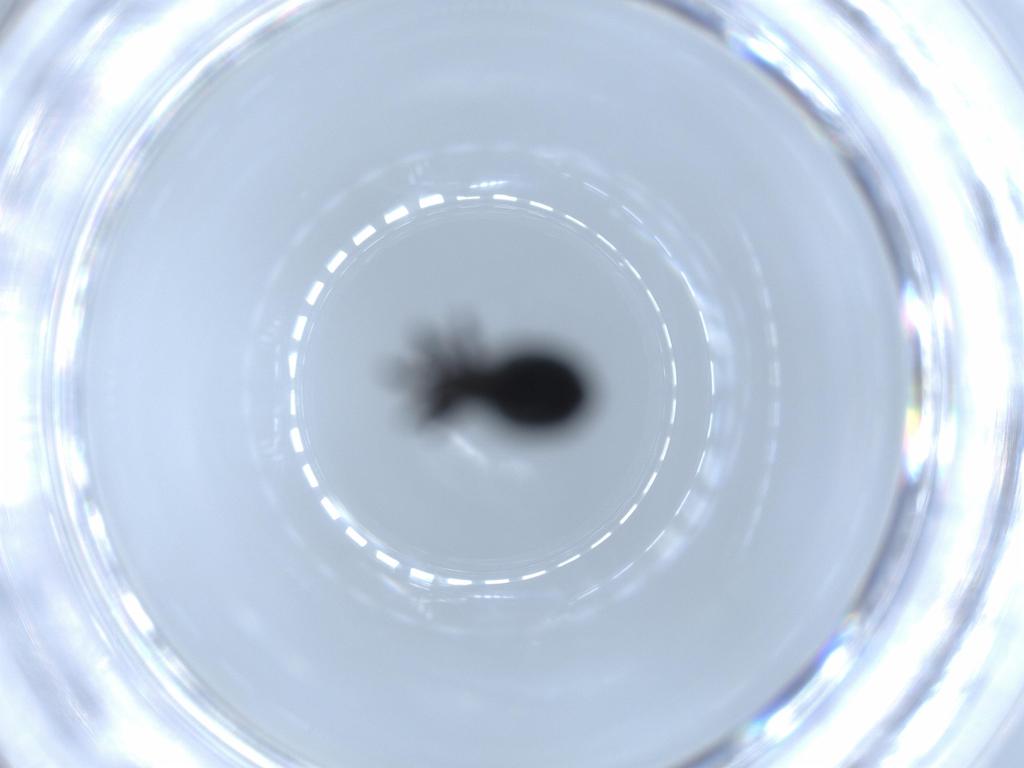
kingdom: Animalia
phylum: Arthropoda
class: Insecta
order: Coleoptera
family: Brentidae
